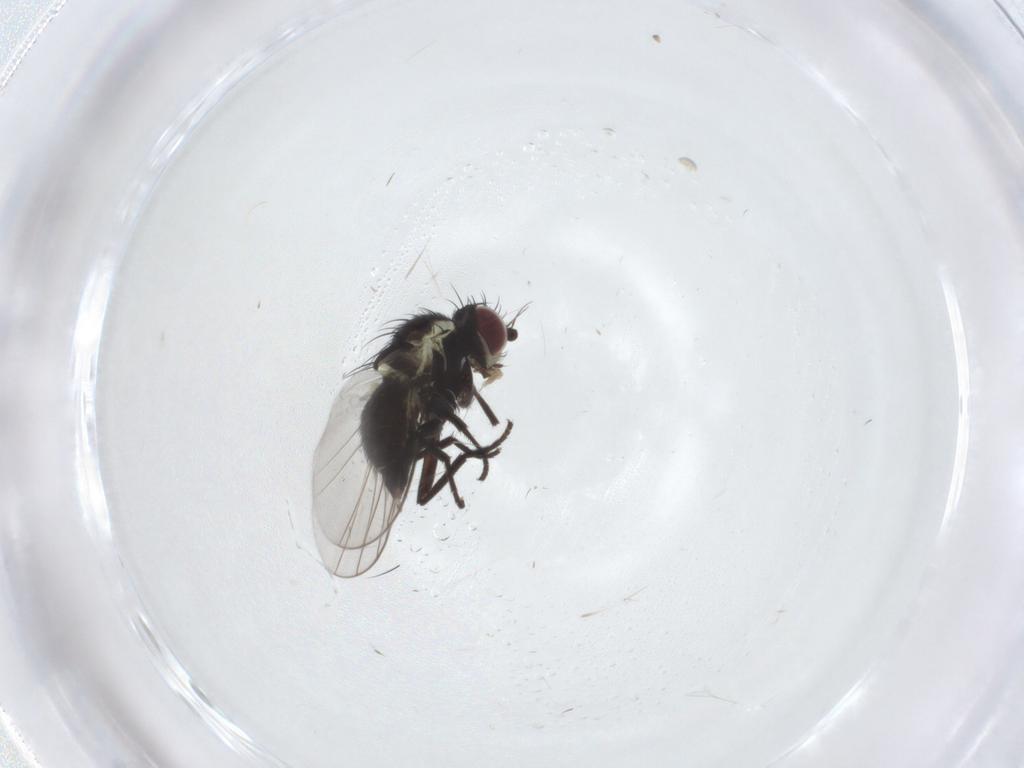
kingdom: Animalia
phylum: Arthropoda
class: Insecta
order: Diptera
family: Agromyzidae
